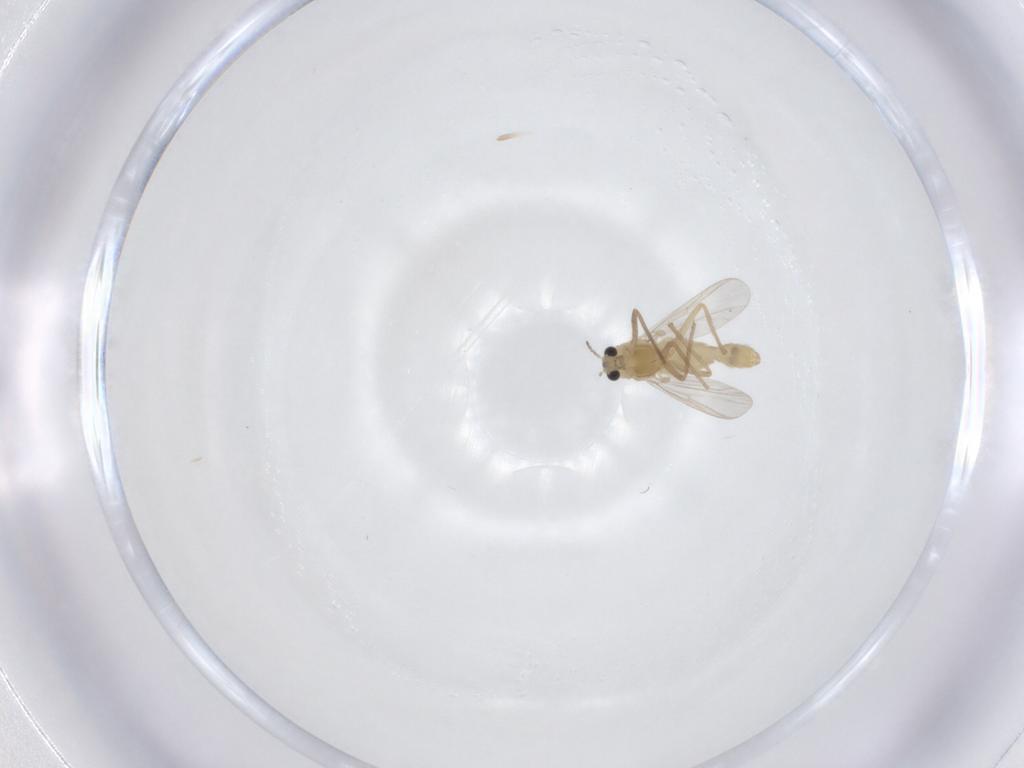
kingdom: Animalia
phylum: Arthropoda
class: Insecta
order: Diptera
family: Chironomidae
